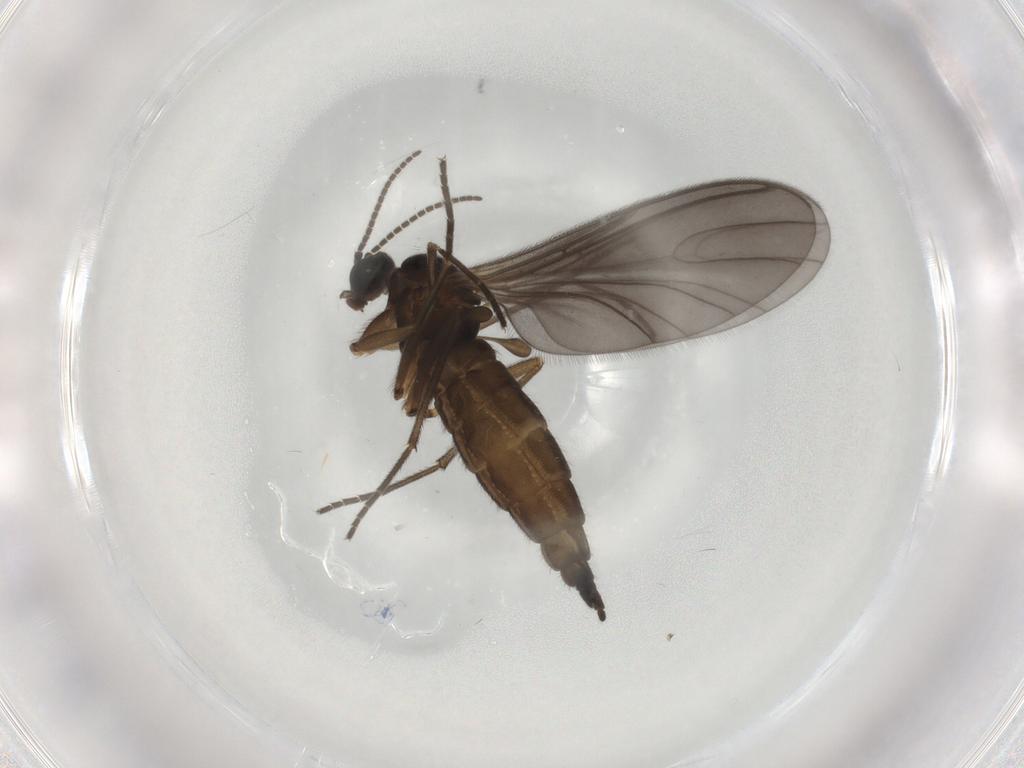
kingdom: Animalia
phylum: Arthropoda
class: Insecta
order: Diptera
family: Sciaridae
